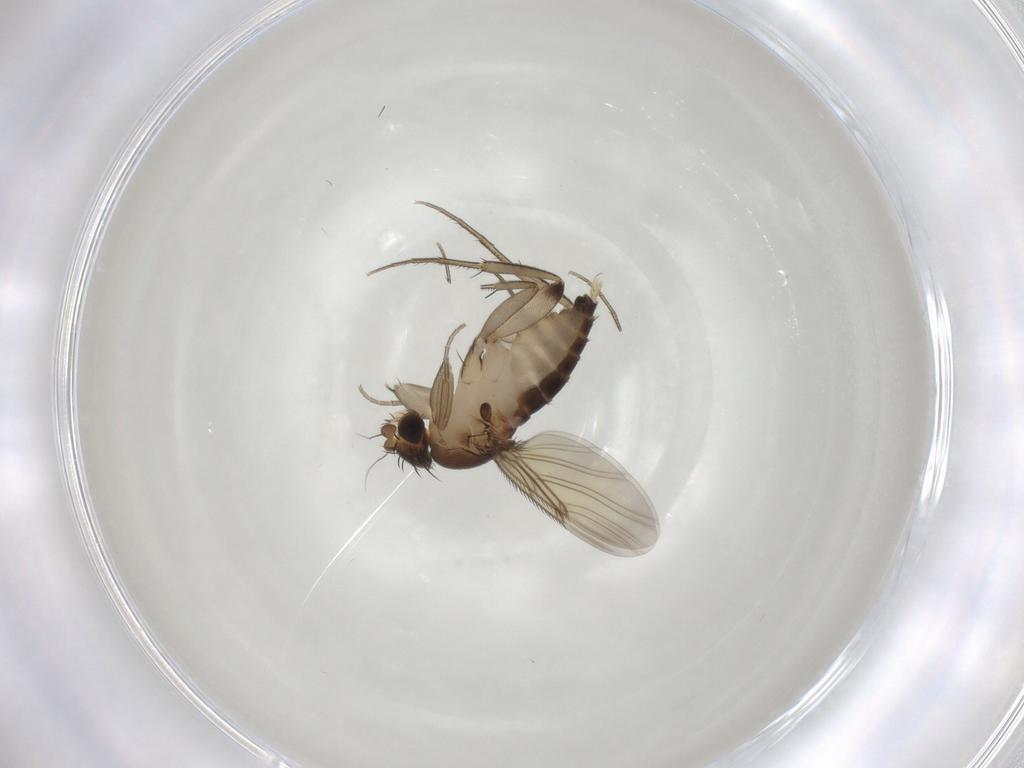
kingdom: Animalia
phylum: Arthropoda
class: Insecta
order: Diptera
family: Phoridae
